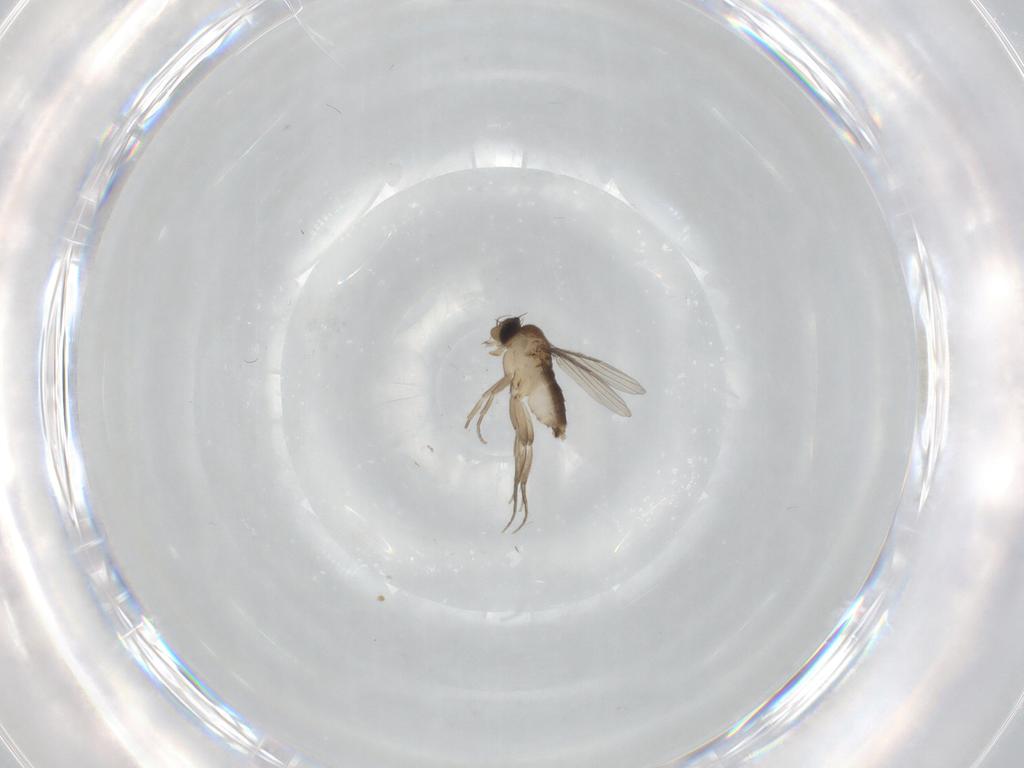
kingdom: Animalia
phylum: Arthropoda
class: Insecta
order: Diptera
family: Phoridae
